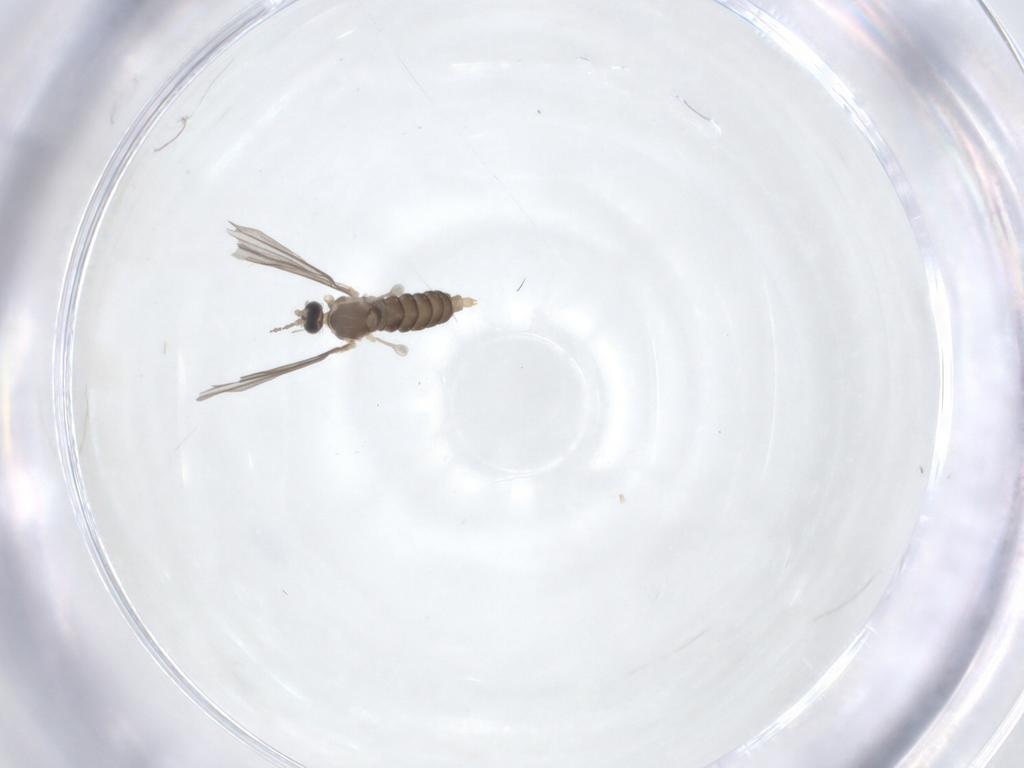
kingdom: Animalia
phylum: Arthropoda
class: Insecta
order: Diptera
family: Cecidomyiidae
